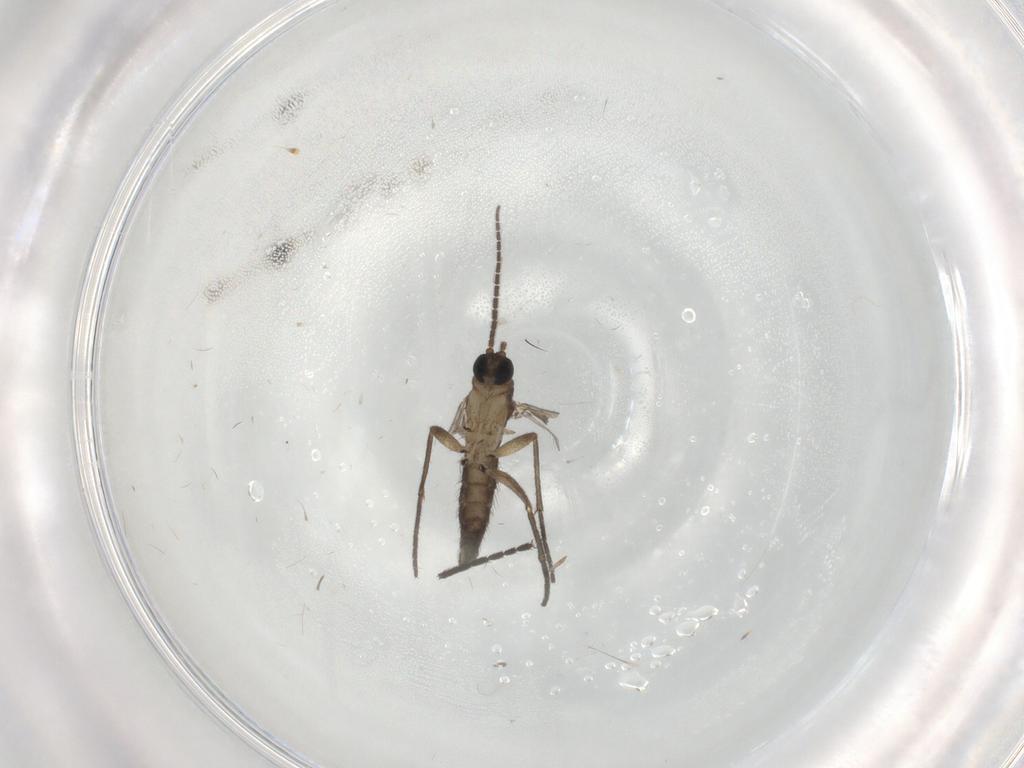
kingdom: Animalia
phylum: Arthropoda
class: Insecta
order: Diptera
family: Sciaridae
